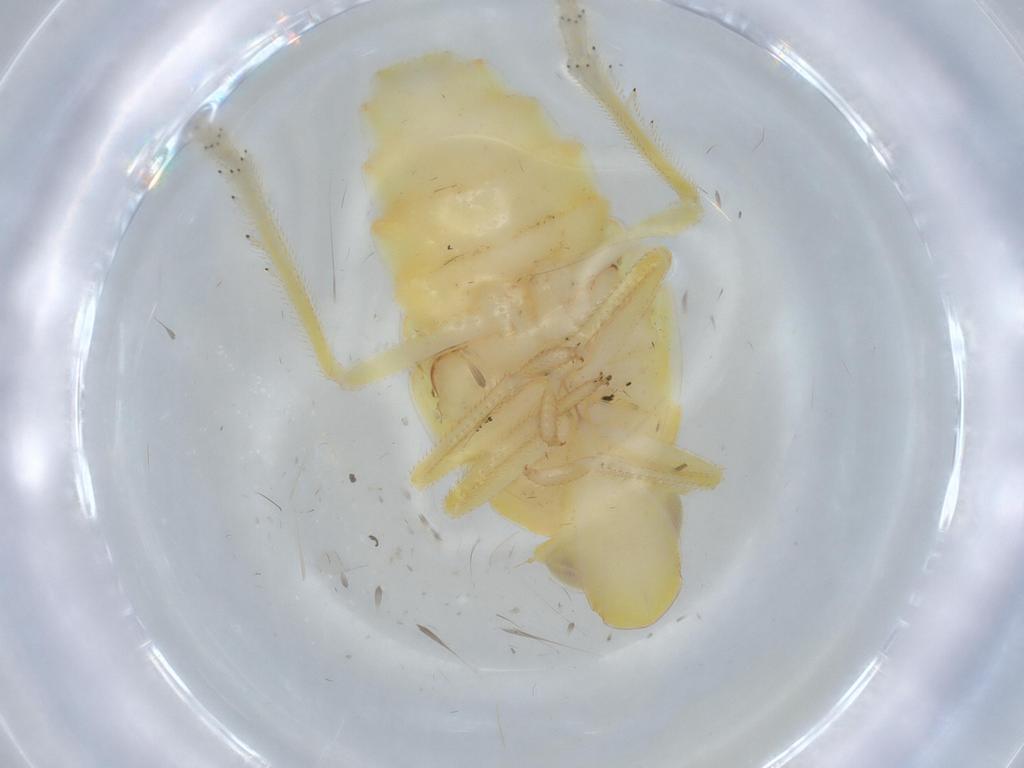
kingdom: Animalia
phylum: Arthropoda
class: Insecta
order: Hemiptera
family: Tropiduchidae
